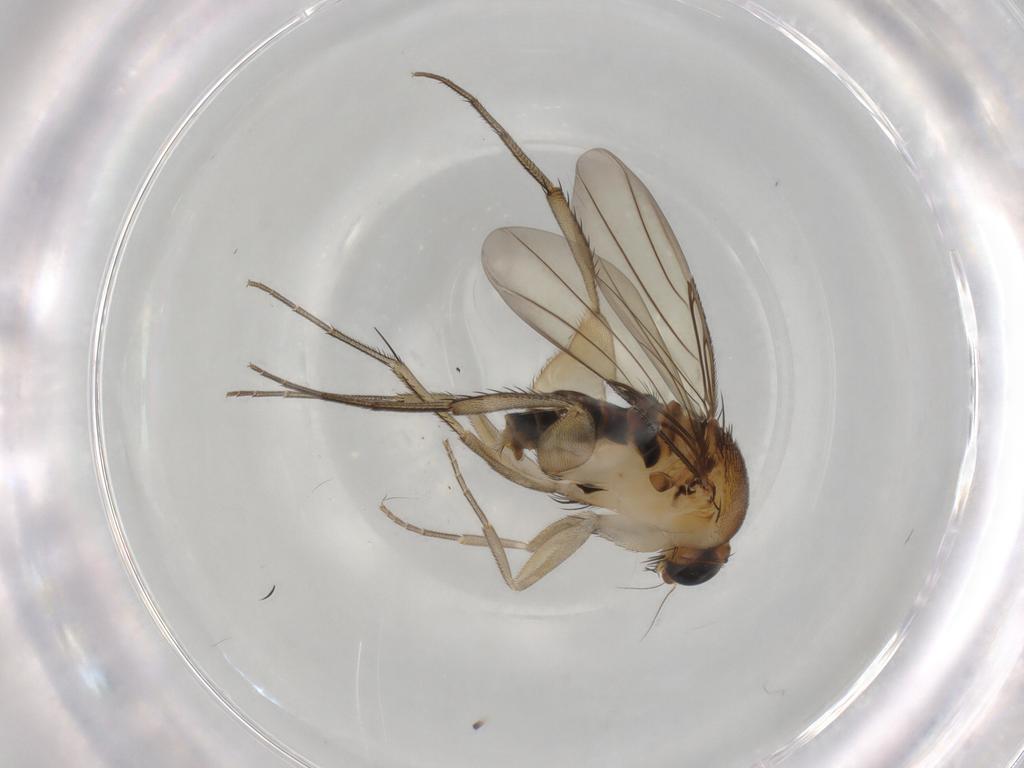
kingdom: Animalia
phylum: Arthropoda
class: Insecta
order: Diptera
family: Phoridae
